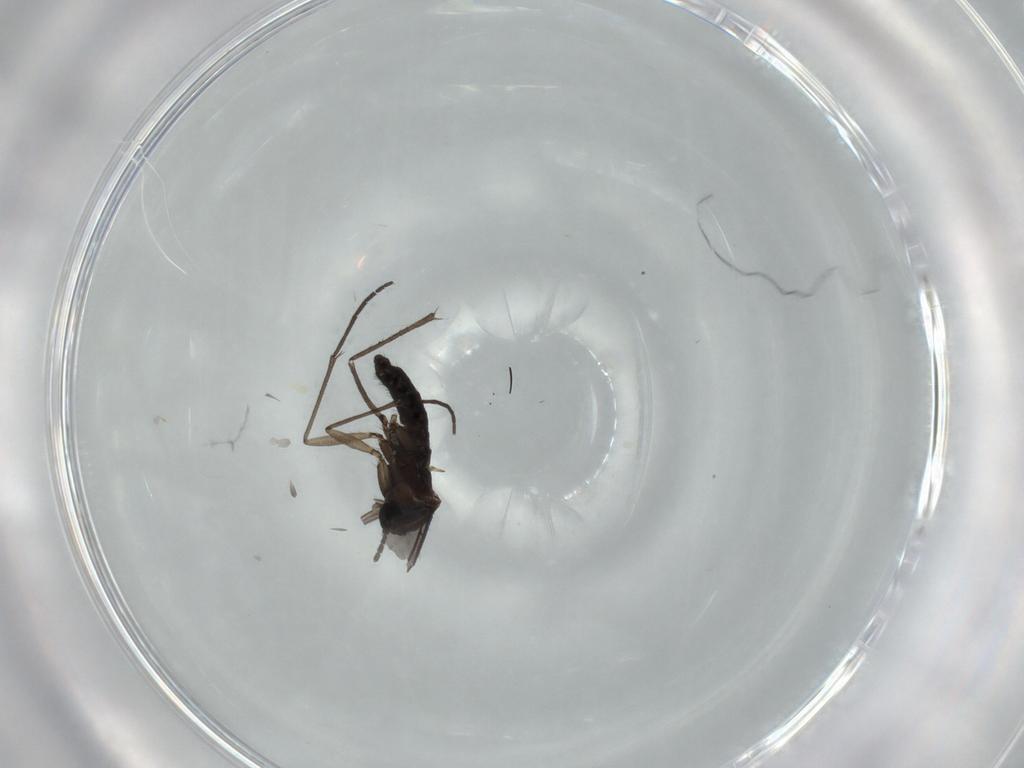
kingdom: Animalia
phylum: Arthropoda
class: Insecta
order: Diptera
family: Sciaridae
